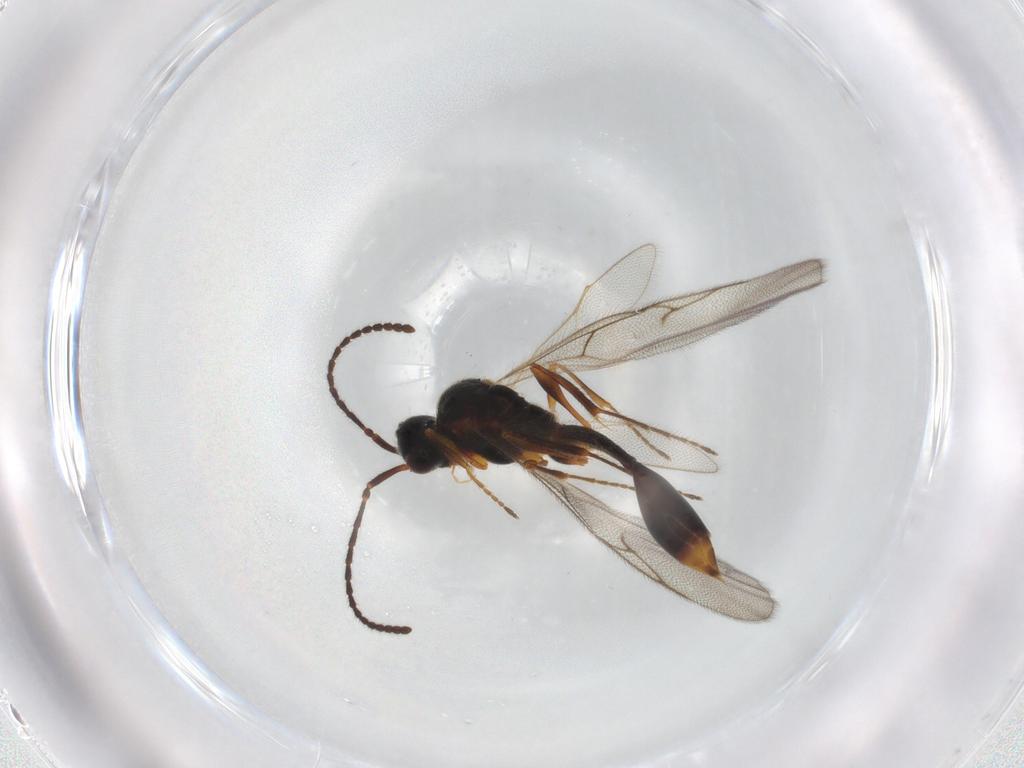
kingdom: Animalia
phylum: Arthropoda
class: Insecta
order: Hymenoptera
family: Diapriidae
